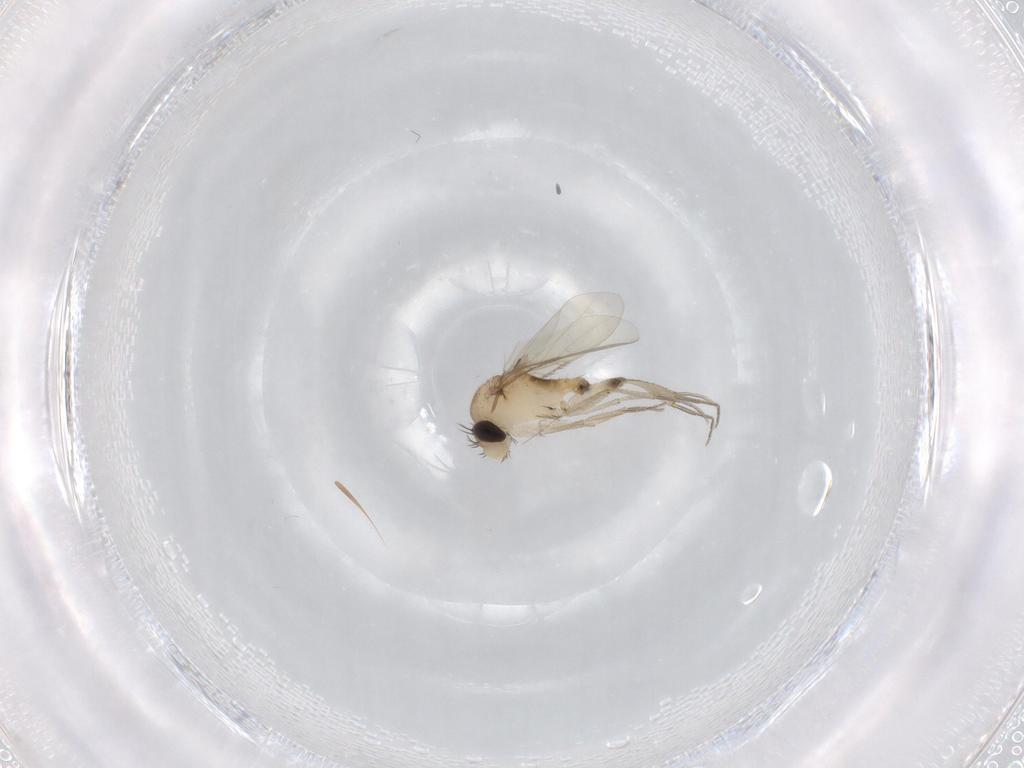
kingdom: Animalia
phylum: Arthropoda
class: Insecta
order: Diptera
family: Phoridae
